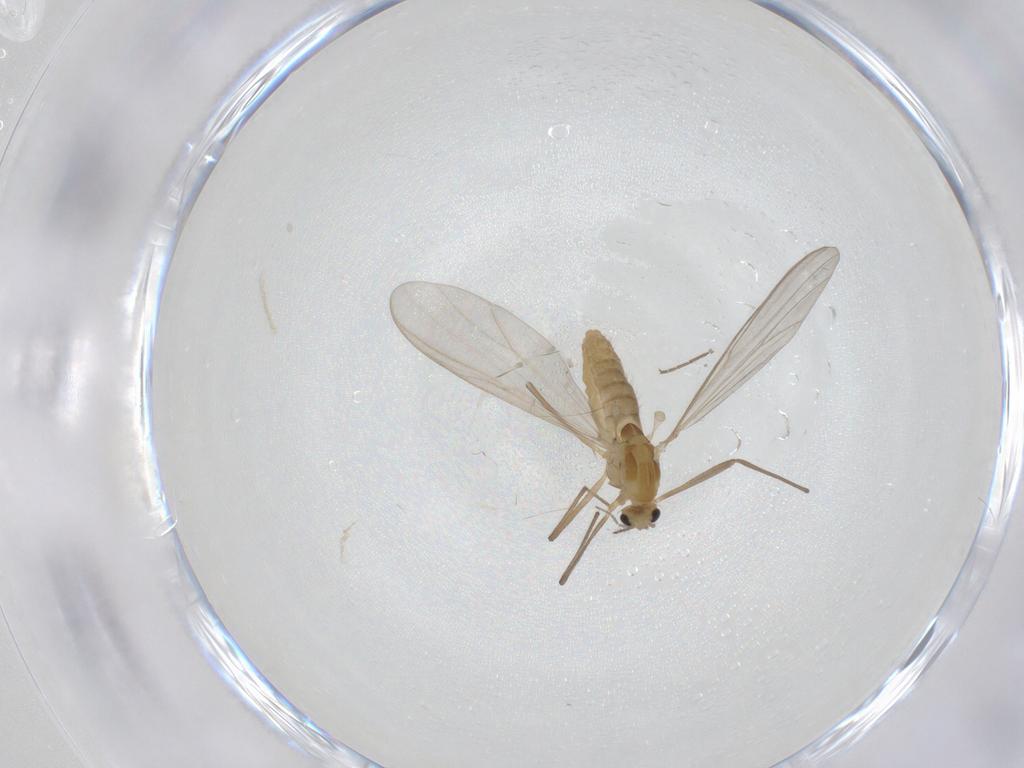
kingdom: Animalia
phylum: Arthropoda
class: Insecta
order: Diptera
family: Chironomidae
